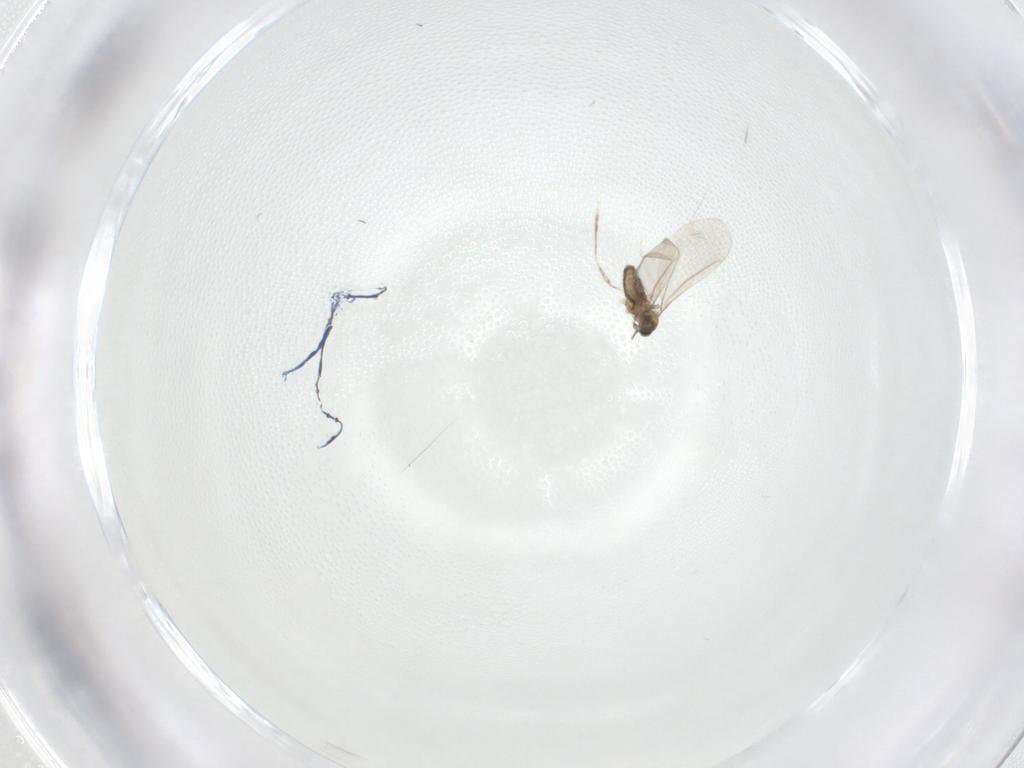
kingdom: Animalia
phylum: Arthropoda
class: Insecta
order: Diptera
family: Cecidomyiidae
